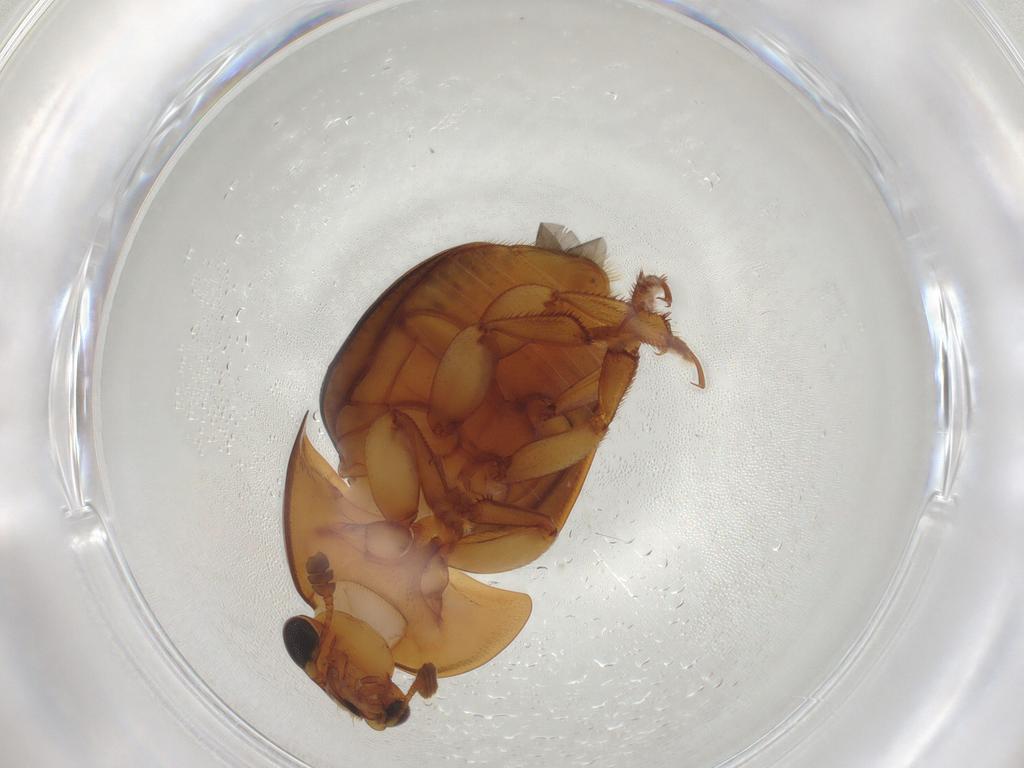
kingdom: Animalia
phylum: Arthropoda
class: Insecta
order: Coleoptera
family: Nitidulidae
